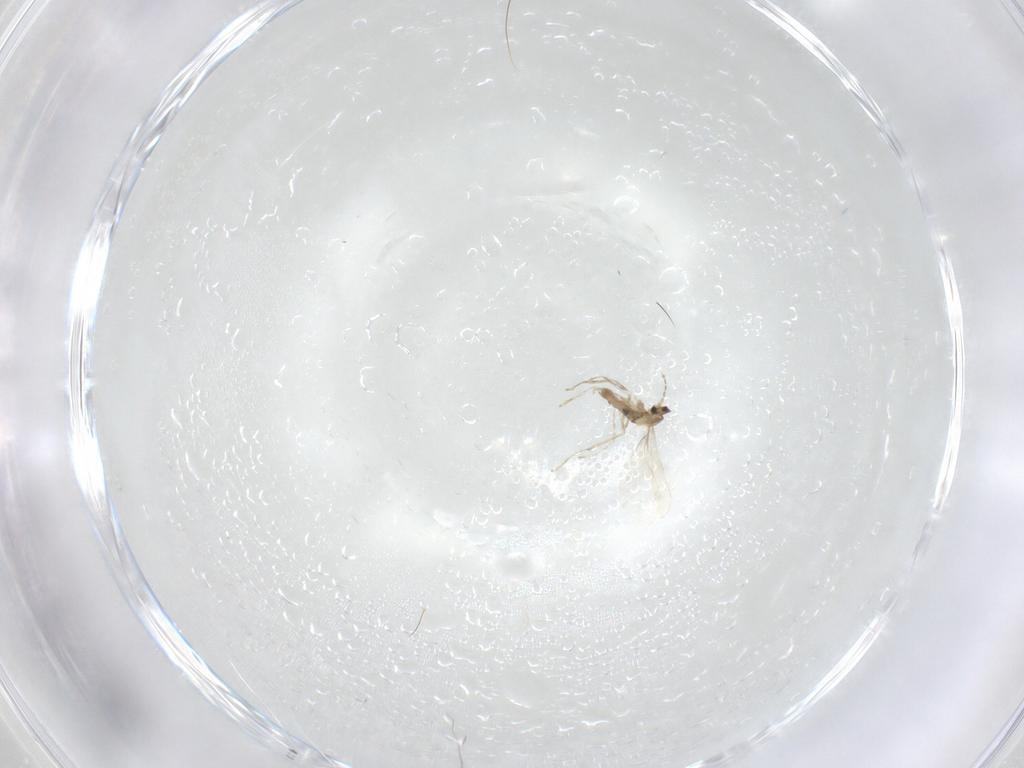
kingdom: Animalia
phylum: Arthropoda
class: Insecta
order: Diptera
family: Cecidomyiidae
